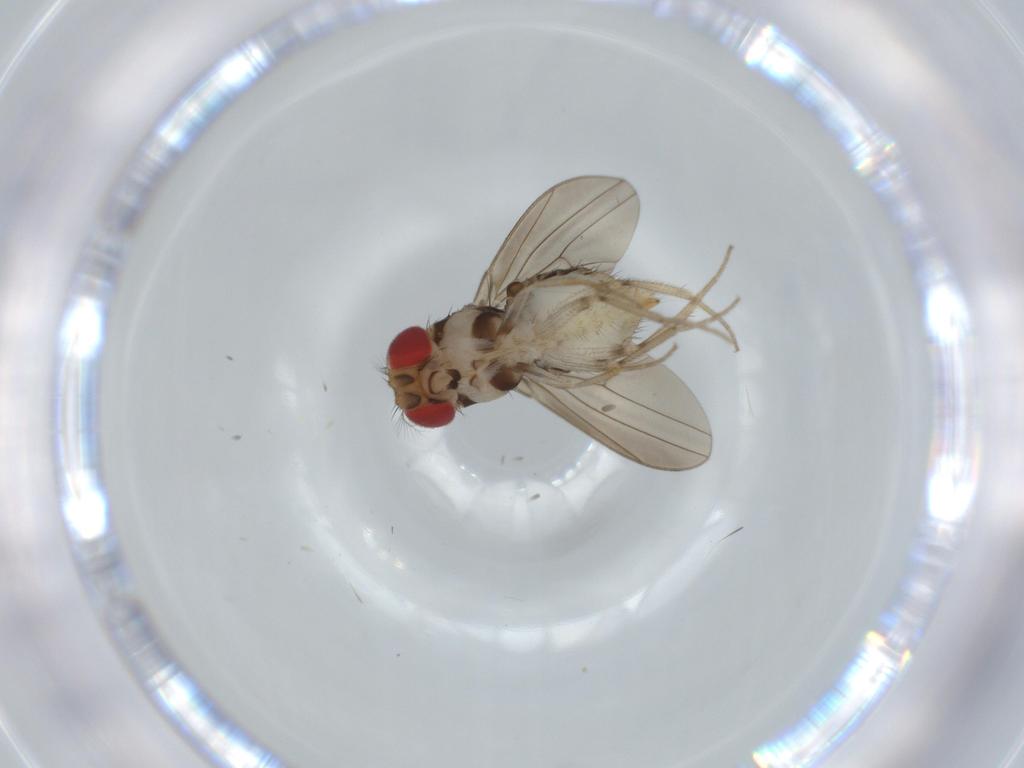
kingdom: Animalia
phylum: Arthropoda
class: Insecta
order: Diptera
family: Drosophilidae
